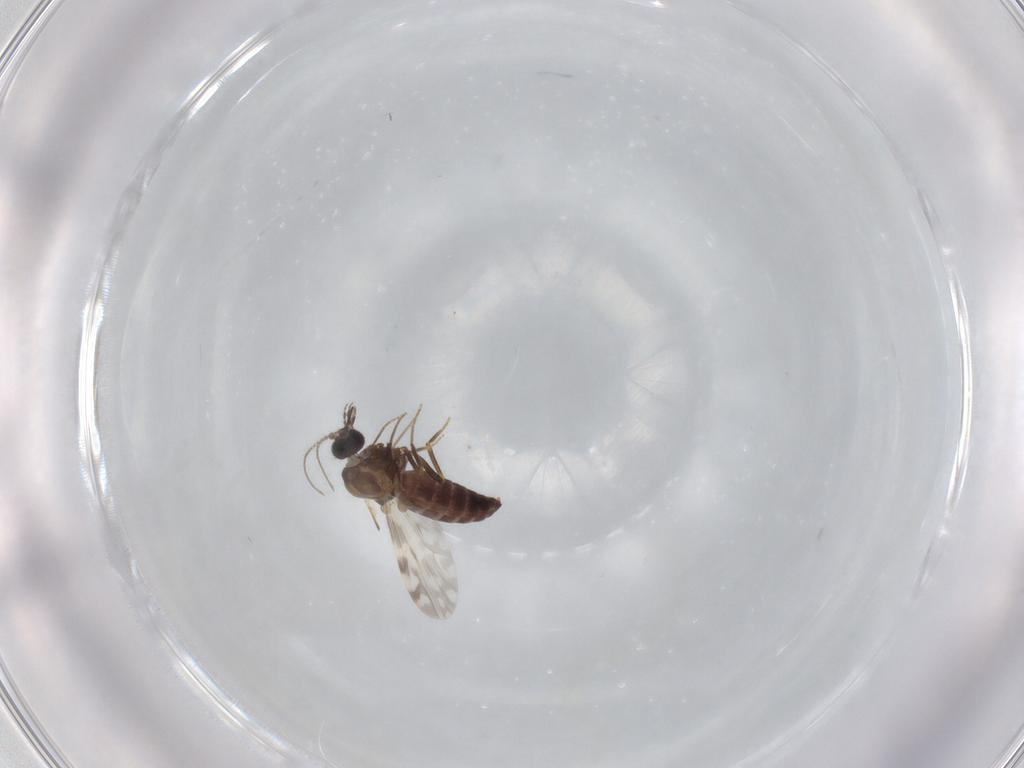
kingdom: Animalia
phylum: Arthropoda
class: Insecta
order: Diptera
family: Ceratopogonidae
